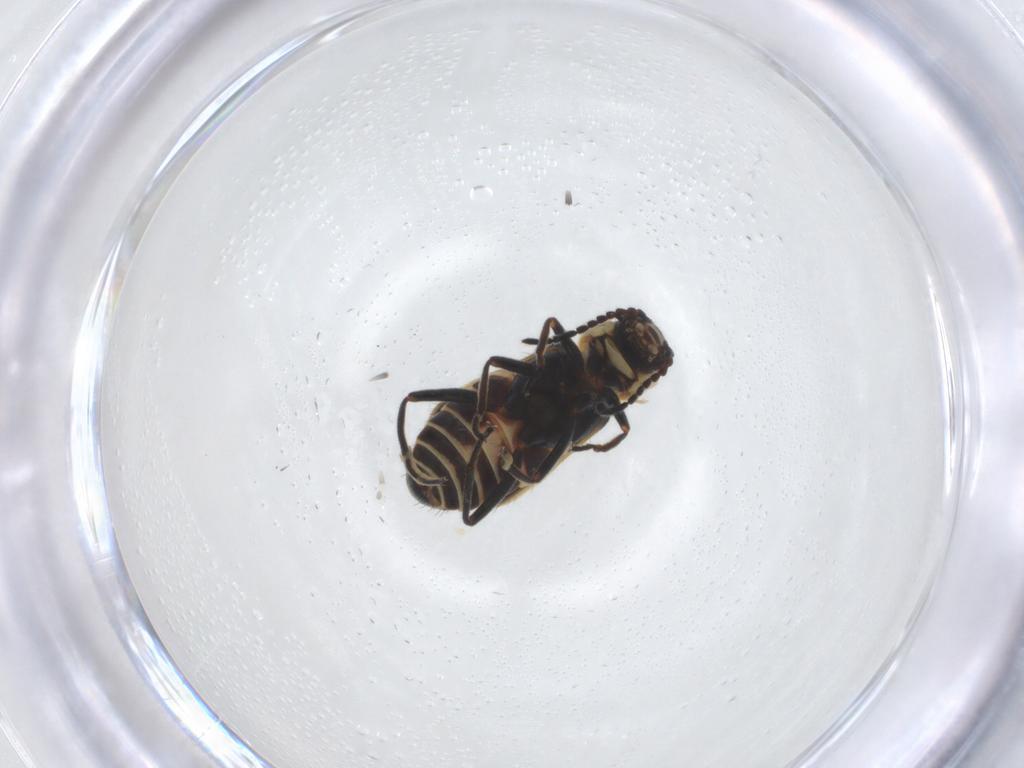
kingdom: Animalia
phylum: Arthropoda
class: Insecta
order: Coleoptera
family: Melyridae
